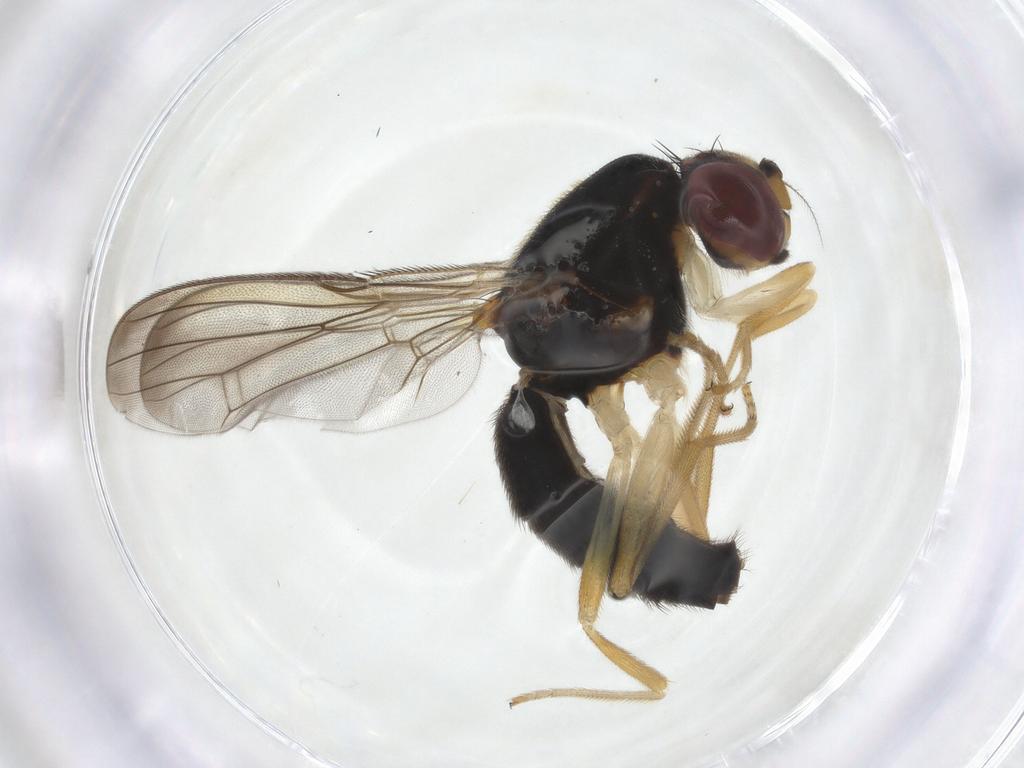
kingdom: Animalia
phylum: Arthropoda
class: Insecta
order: Diptera
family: Psilidae
